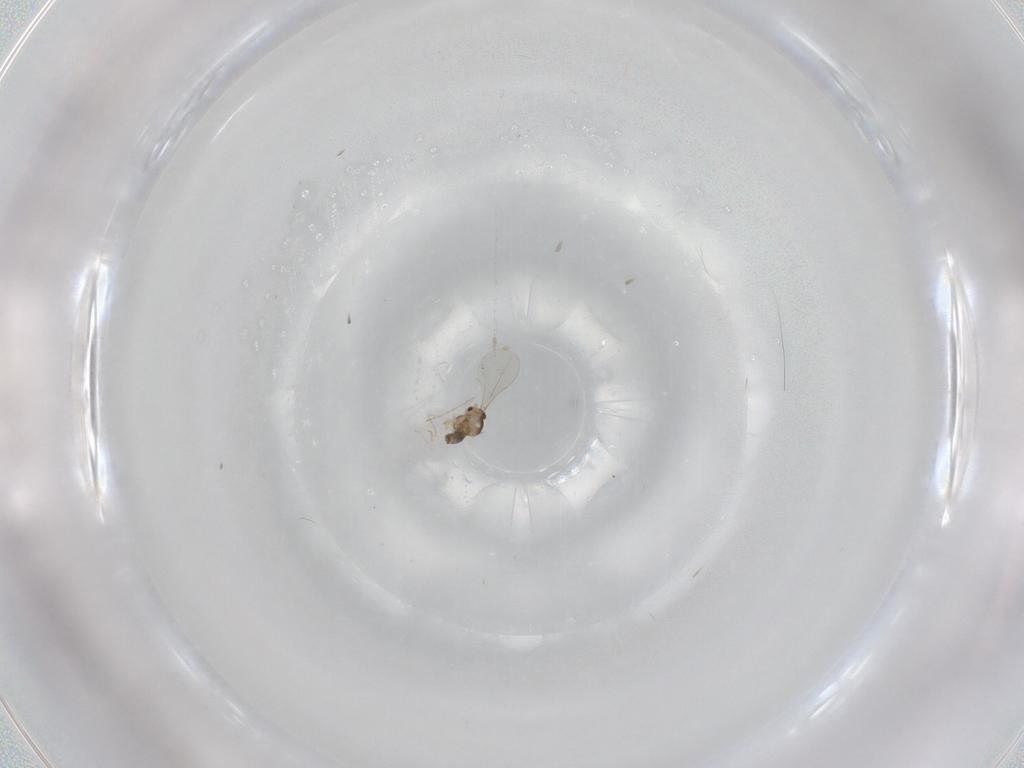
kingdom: Animalia
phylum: Arthropoda
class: Insecta
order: Diptera
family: Cecidomyiidae
